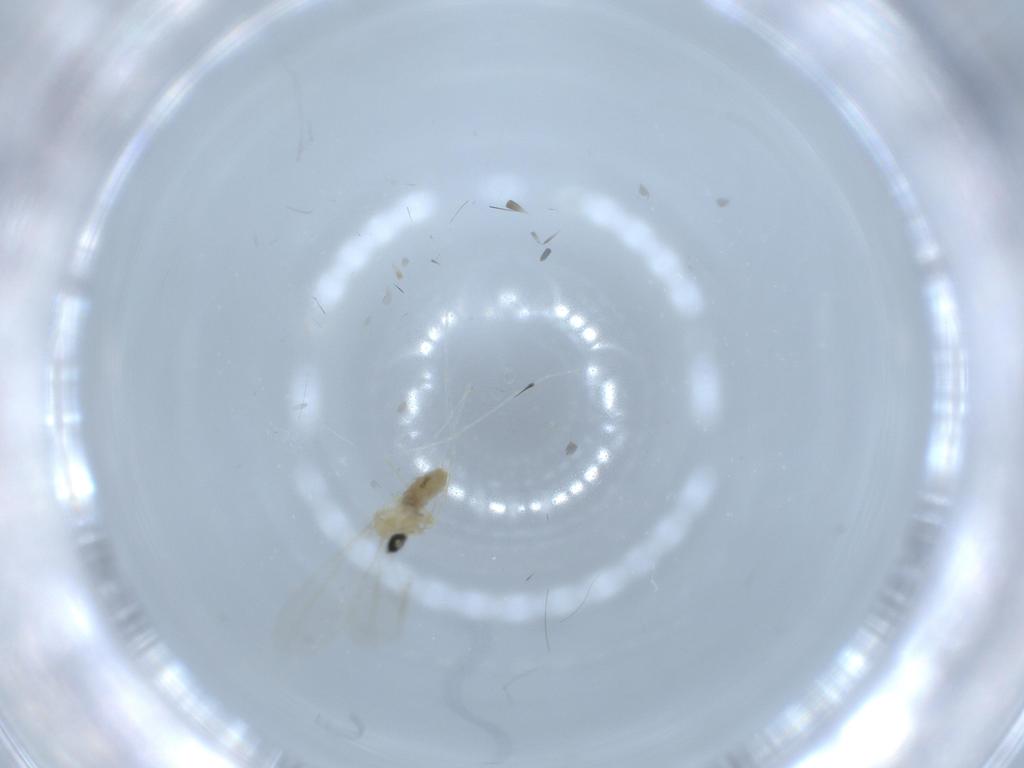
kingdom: Animalia
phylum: Arthropoda
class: Insecta
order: Diptera
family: Cecidomyiidae
